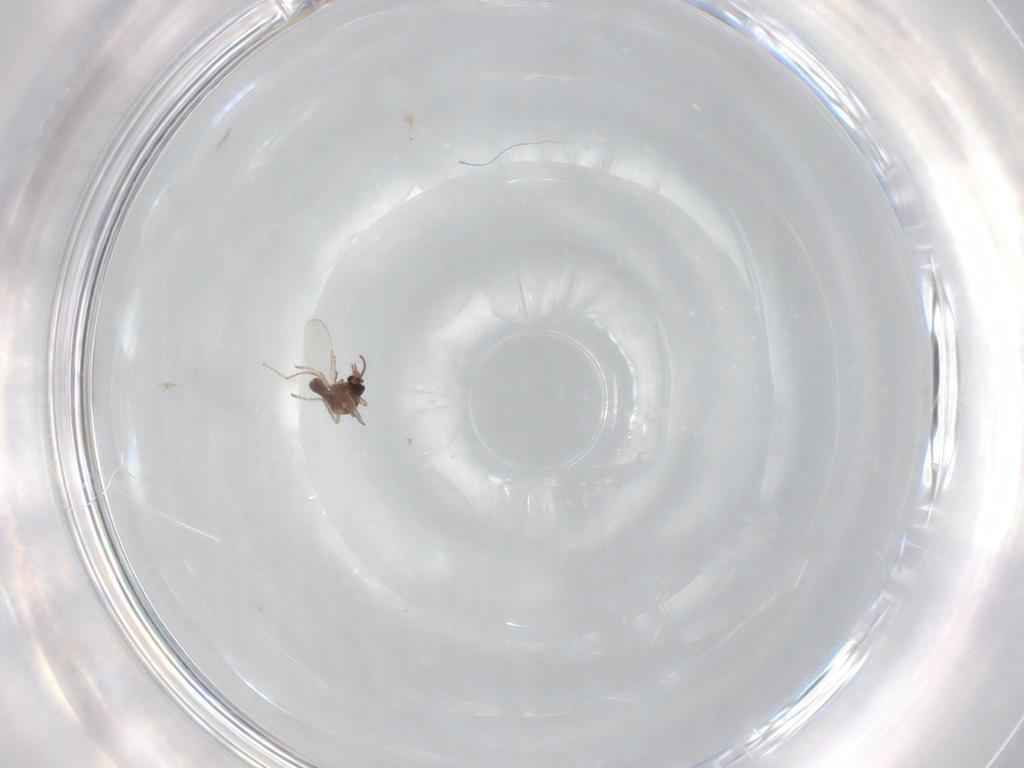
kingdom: Animalia
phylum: Arthropoda
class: Insecta
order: Diptera
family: Ceratopogonidae
